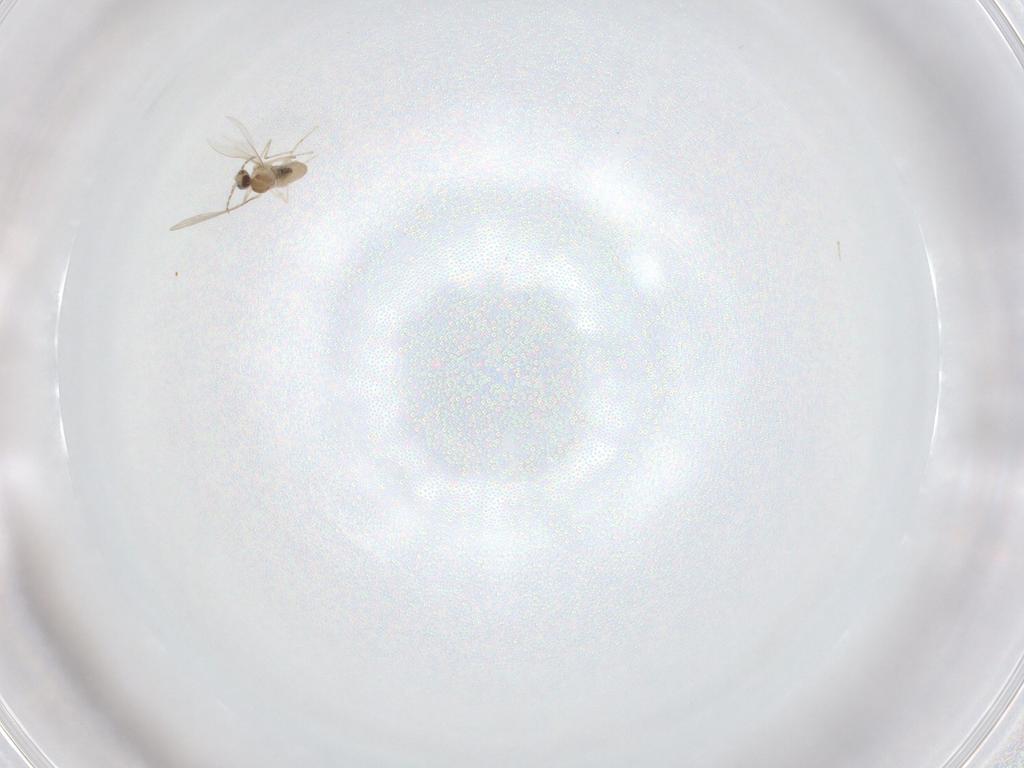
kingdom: Animalia
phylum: Arthropoda
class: Insecta
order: Diptera
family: Cecidomyiidae
